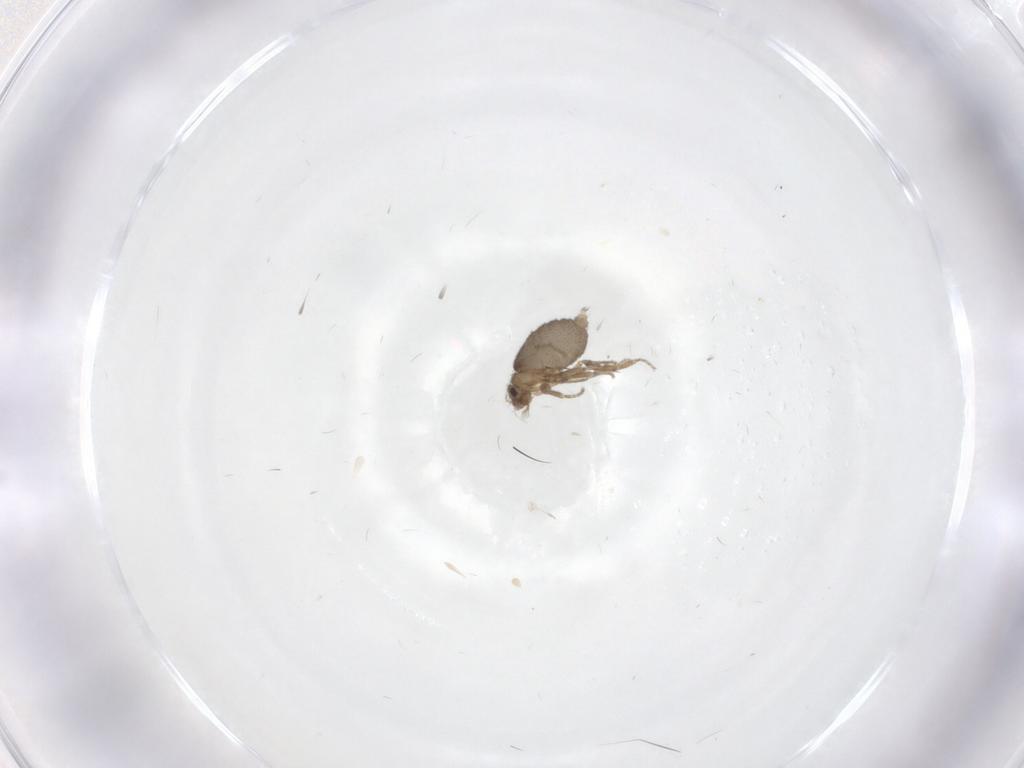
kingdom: Animalia
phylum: Arthropoda
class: Insecta
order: Diptera
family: Phoridae
